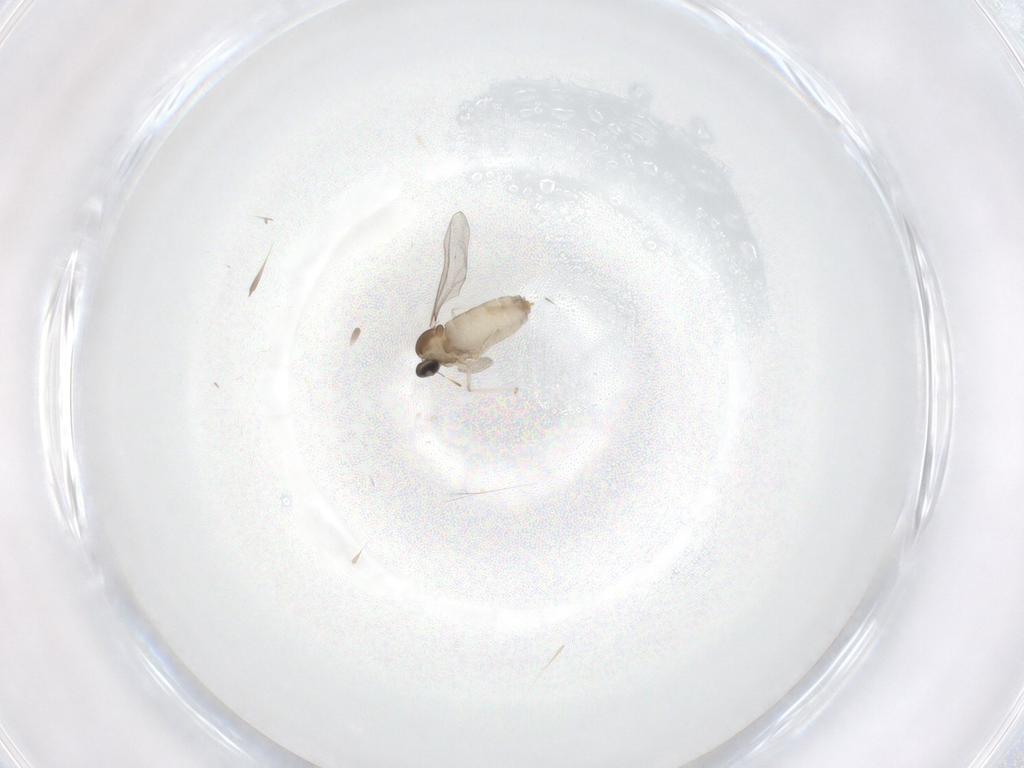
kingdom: Animalia
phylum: Arthropoda
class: Insecta
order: Diptera
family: Cecidomyiidae
